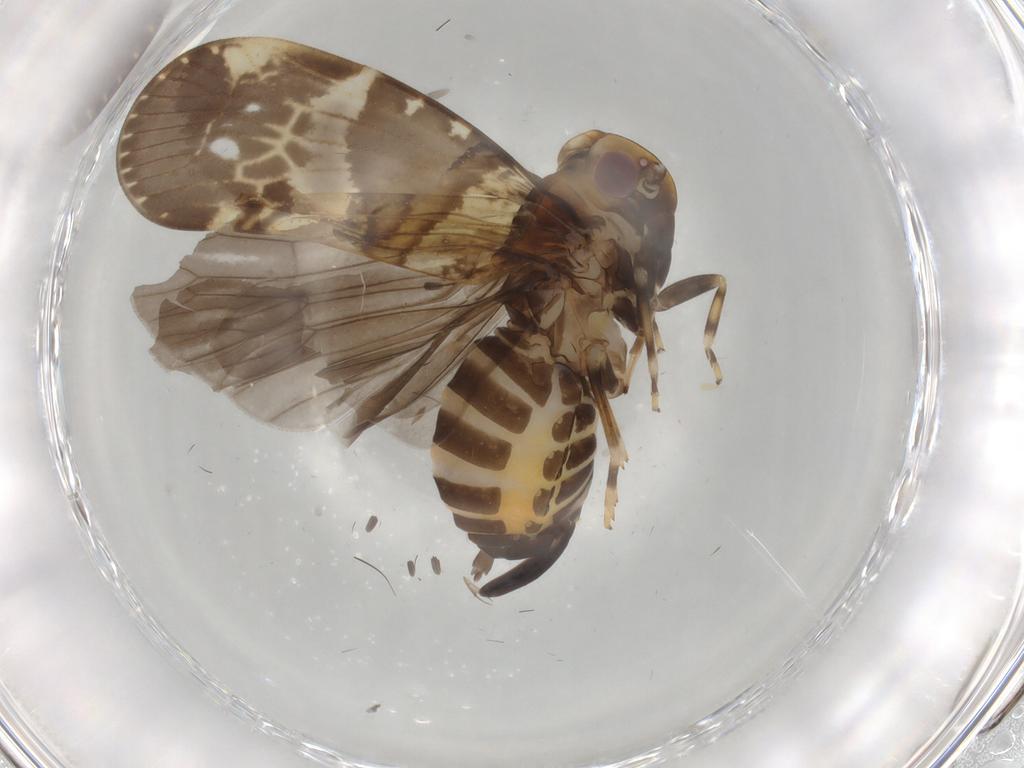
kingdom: Animalia
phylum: Arthropoda
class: Insecta
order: Hemiptera
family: Cixiidae
